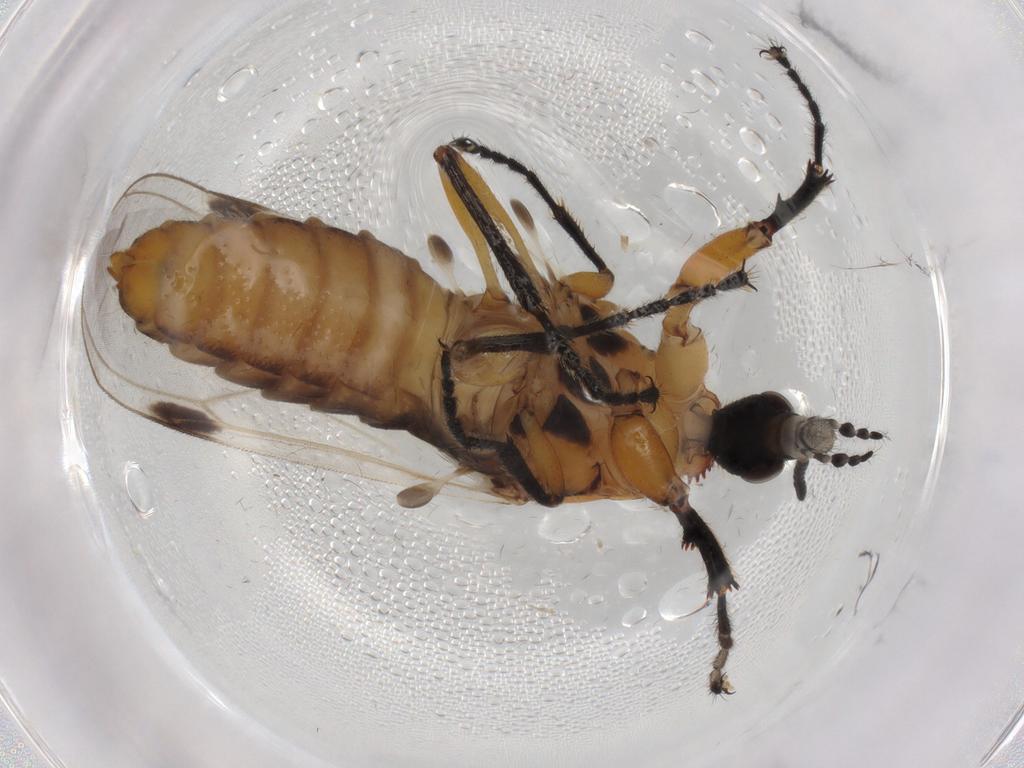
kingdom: Animalia
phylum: Arthropoda
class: Insecta
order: Diptera
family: Bibionidae
